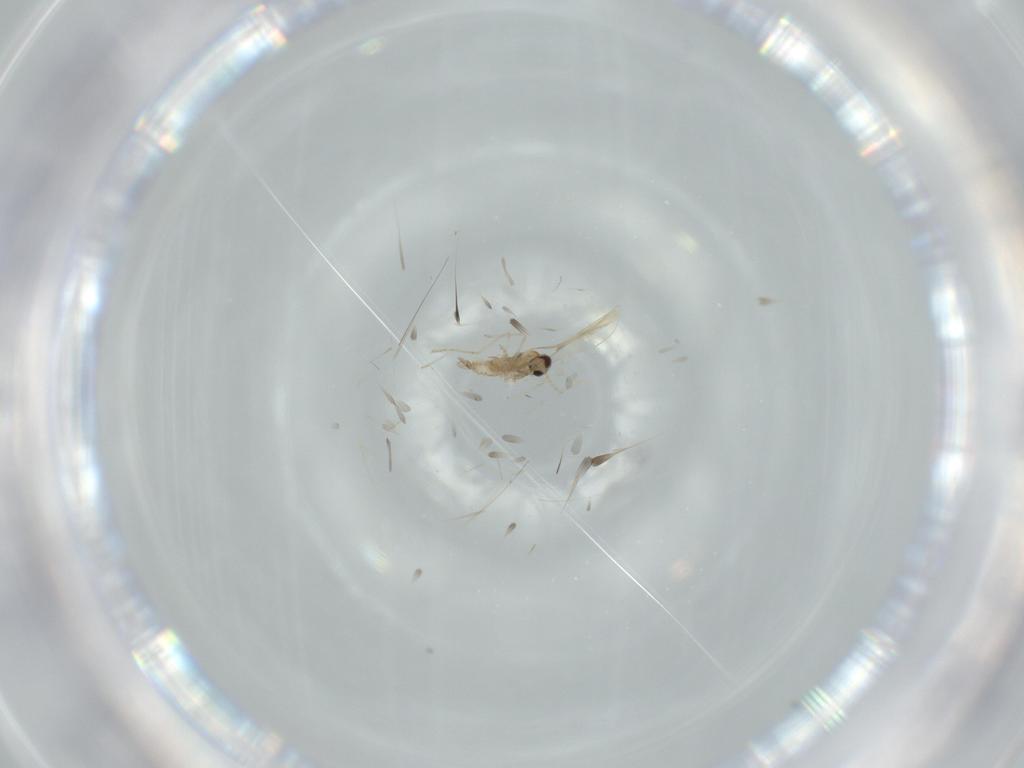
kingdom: Animalia
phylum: Arthropoda
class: Insecta
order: Diptera
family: Cecidomyiidae
